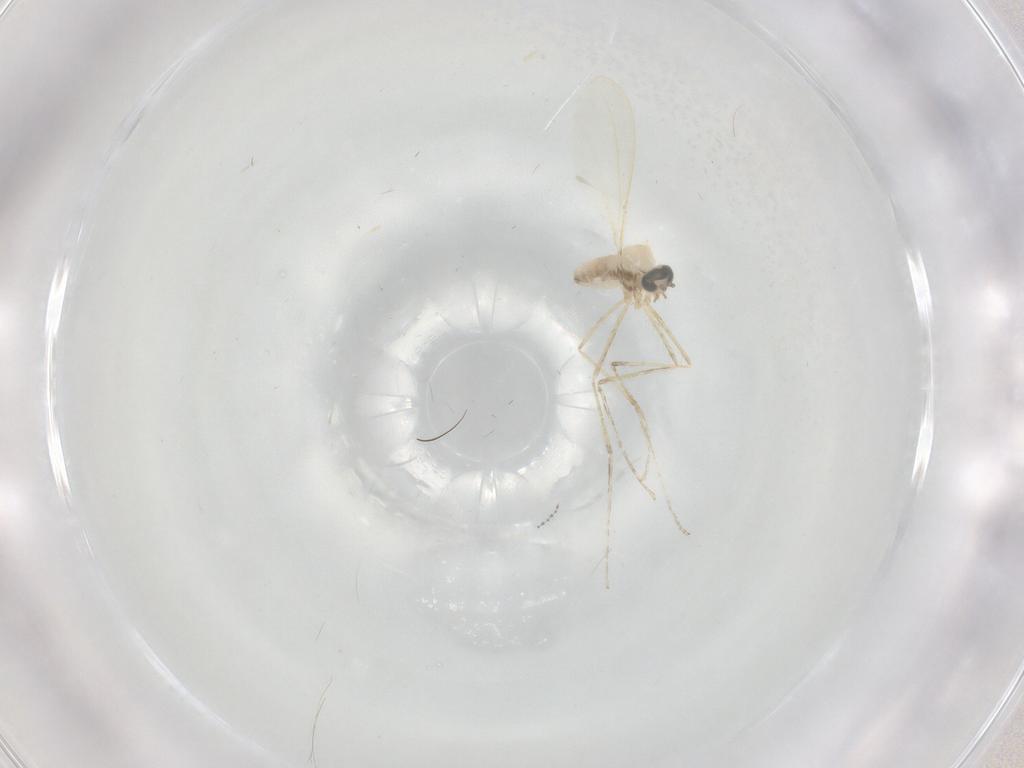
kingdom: Animalia
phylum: Arthropoda
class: Insecta
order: Diptera
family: Cecidomyiidae
